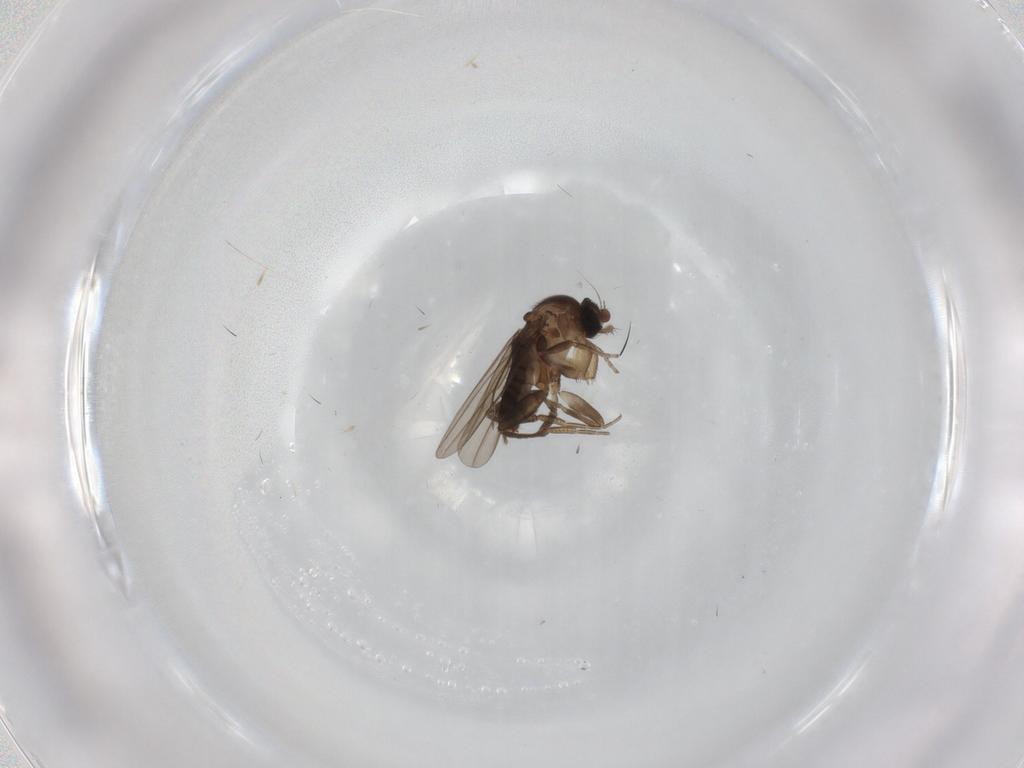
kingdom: Animalia
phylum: Arthropoda
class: Insecta
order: Diptera
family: Phoridae
